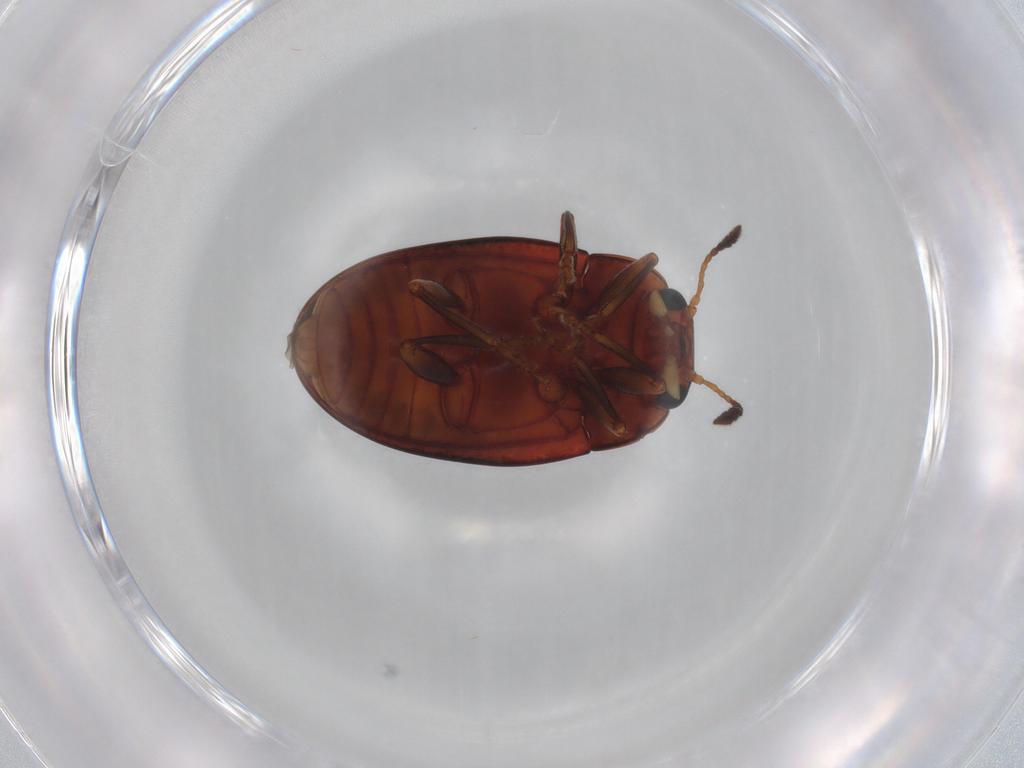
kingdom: Animalia
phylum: Arthropoda
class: Insecta
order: Coleoptera
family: Erotylidae
